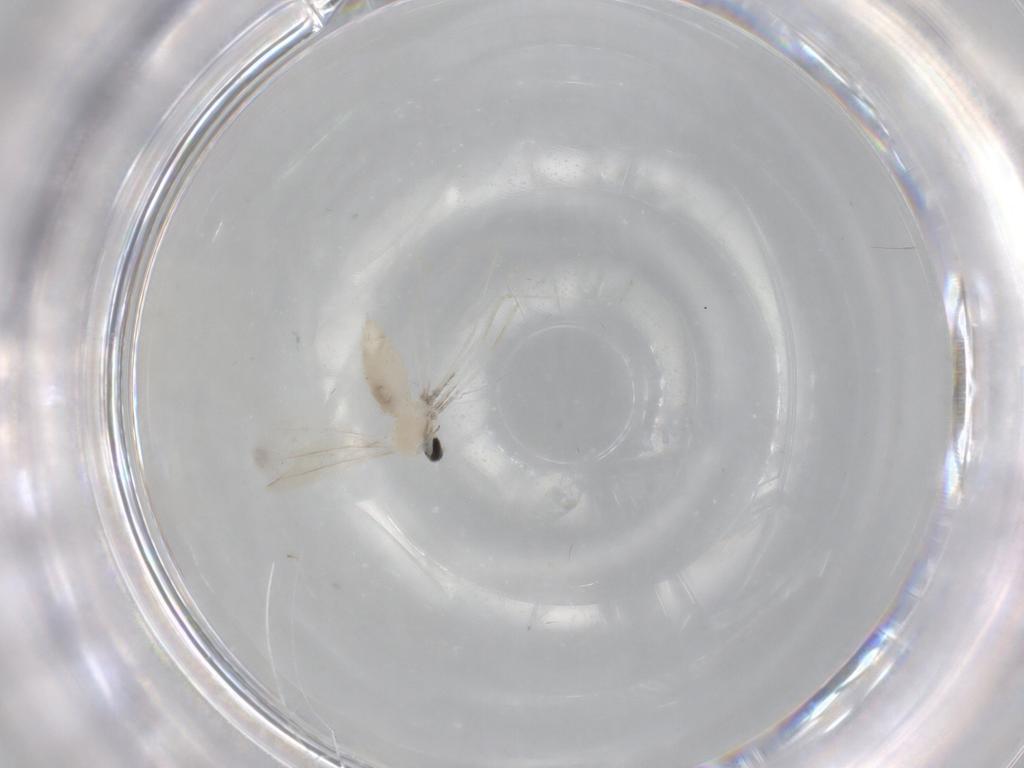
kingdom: Animalia
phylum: Arthropoda
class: Insecta
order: Diptera
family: Cecidomyiidae
